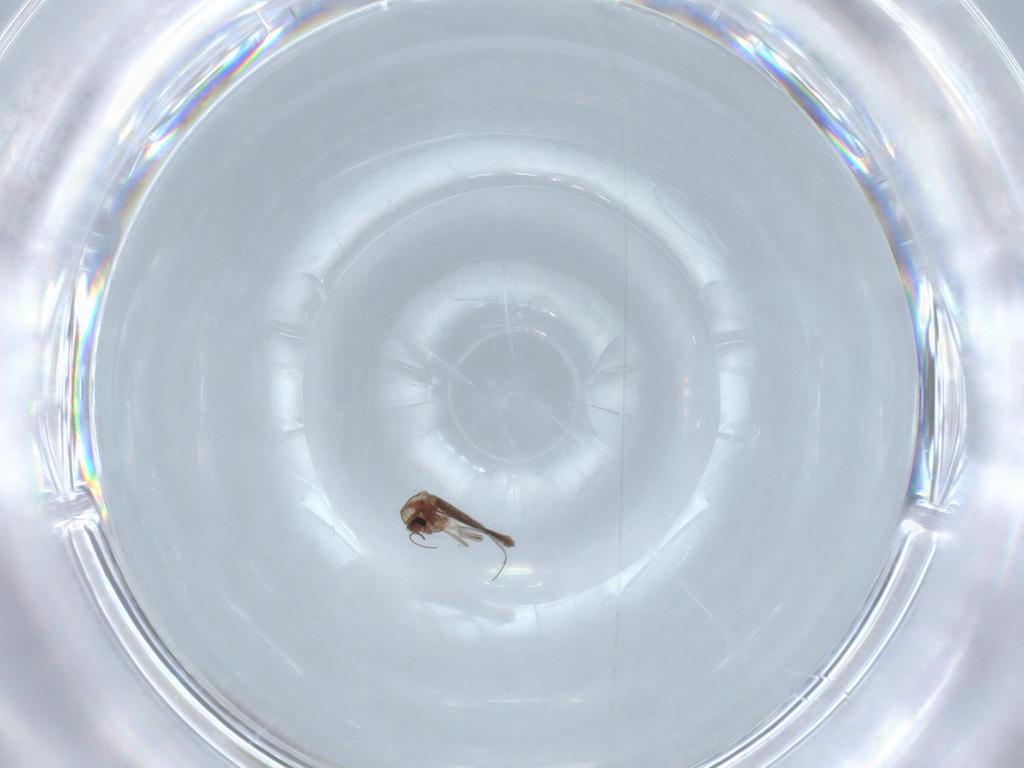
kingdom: Animalia
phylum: Arthropoda
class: Insecta
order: Diptera
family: Chironomidae
